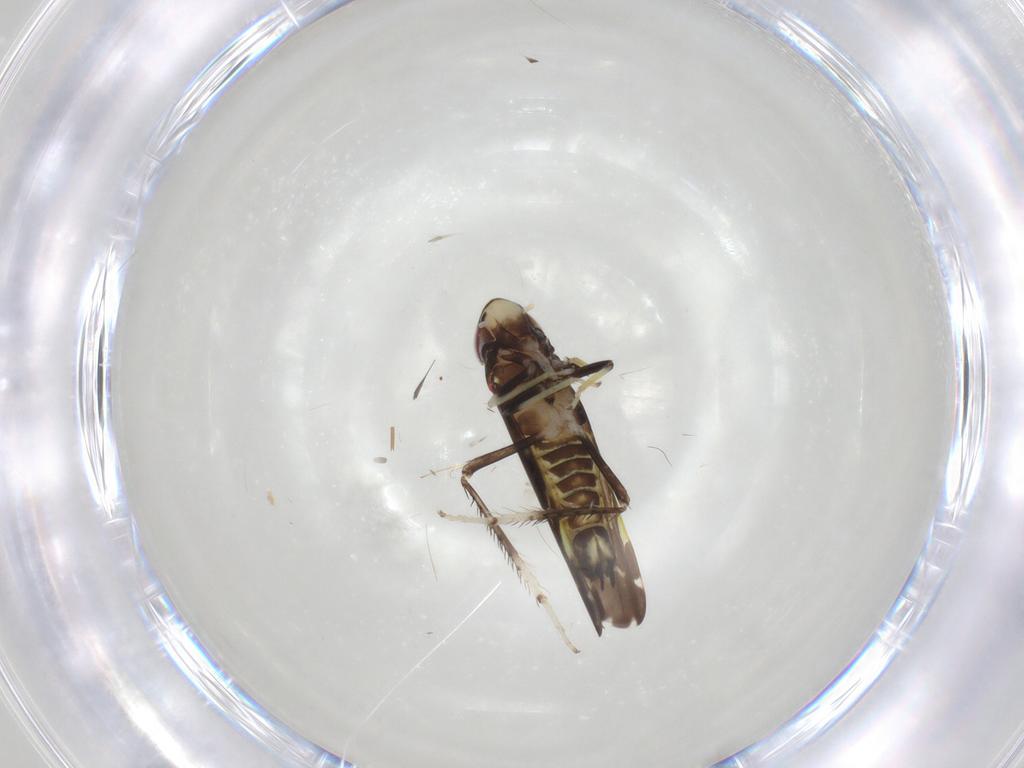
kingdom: Animalia
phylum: Arthropoda
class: Insecta
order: Hemiptera
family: Cicadellidae
